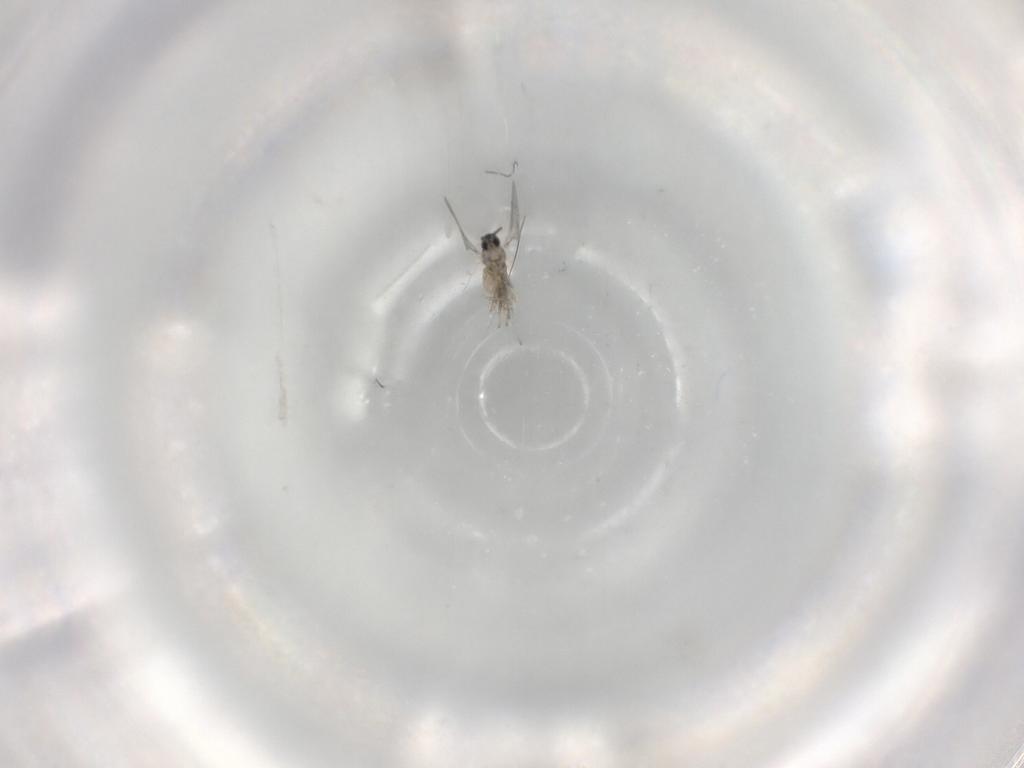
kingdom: Animalia
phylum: Arthropoda
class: Insecta
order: Diptera
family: Cecidomyiidae
